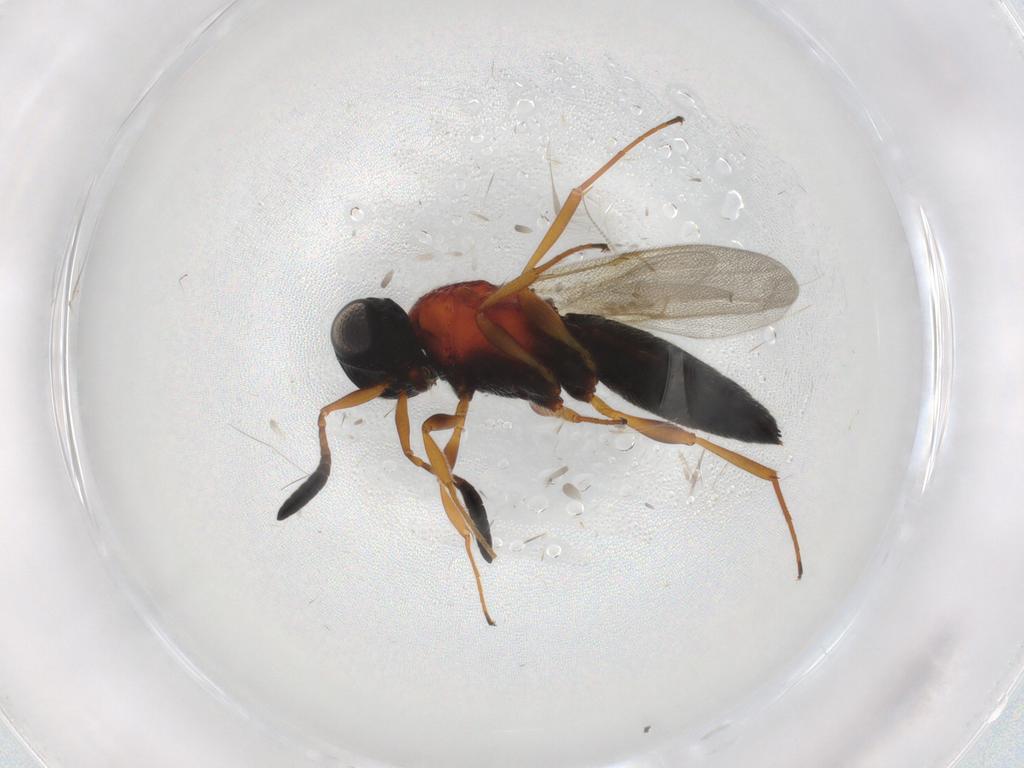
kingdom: Animalia
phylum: Arthropoda
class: Insecta
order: Hymenoptera
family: Scelionidae
